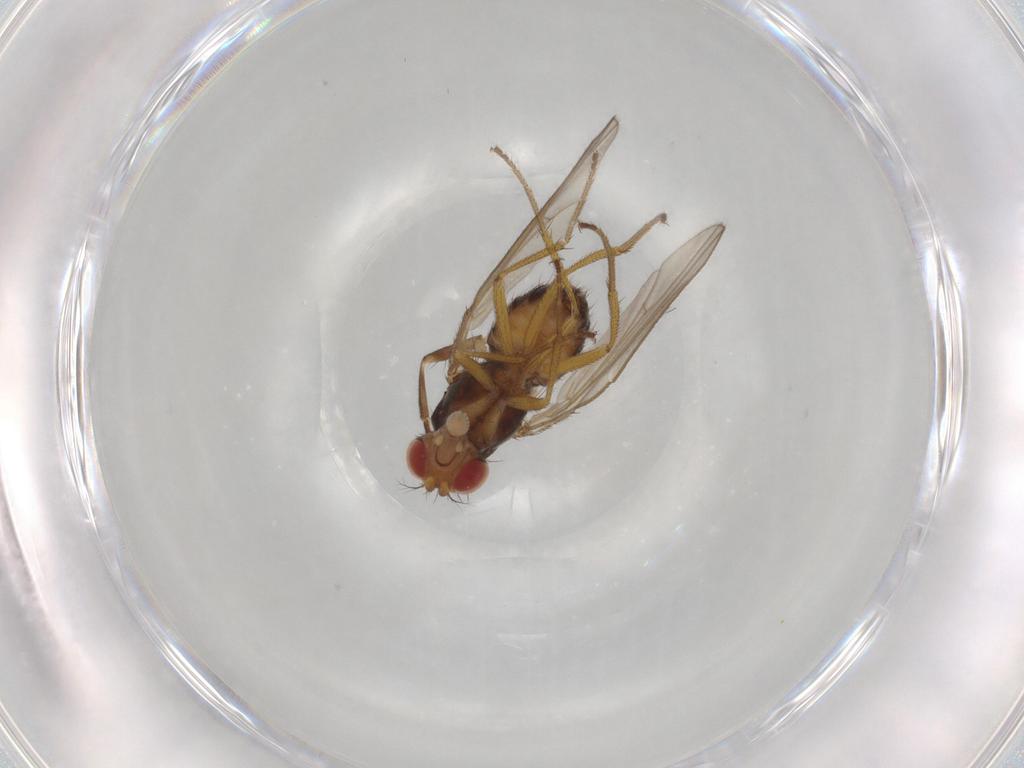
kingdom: Animalia
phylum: Arthropoda
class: Insecta
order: Diptera
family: Drosophilidae
